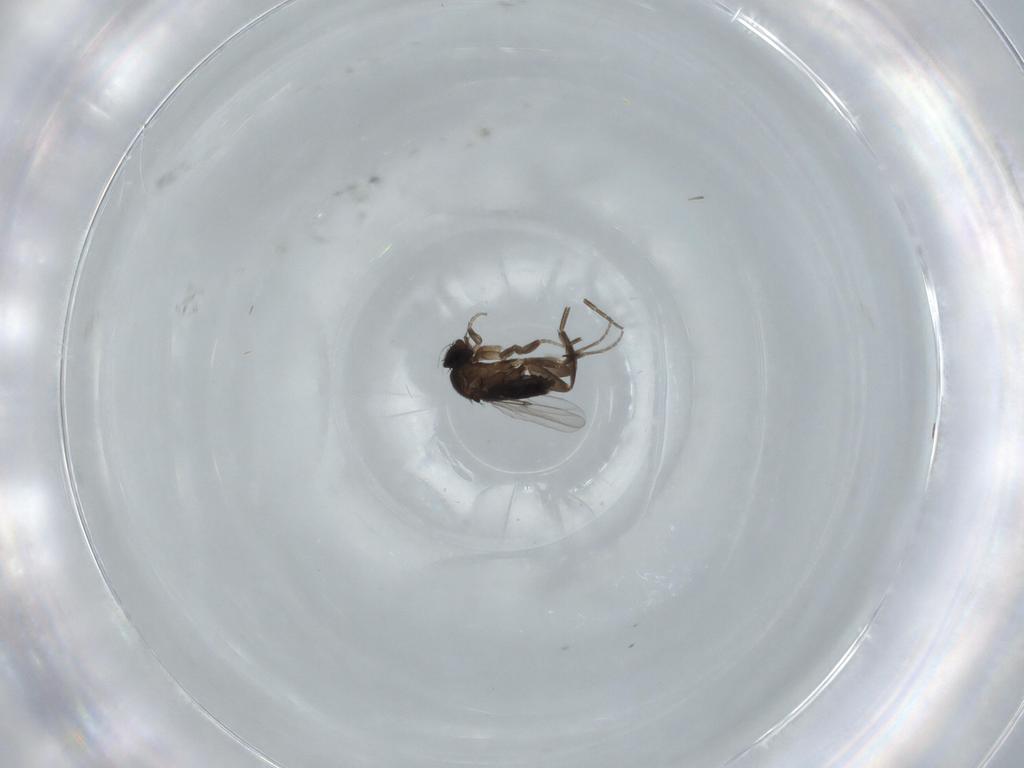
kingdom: Animalia
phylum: Arthropoda
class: Insecta
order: Diptera
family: Phoridae
